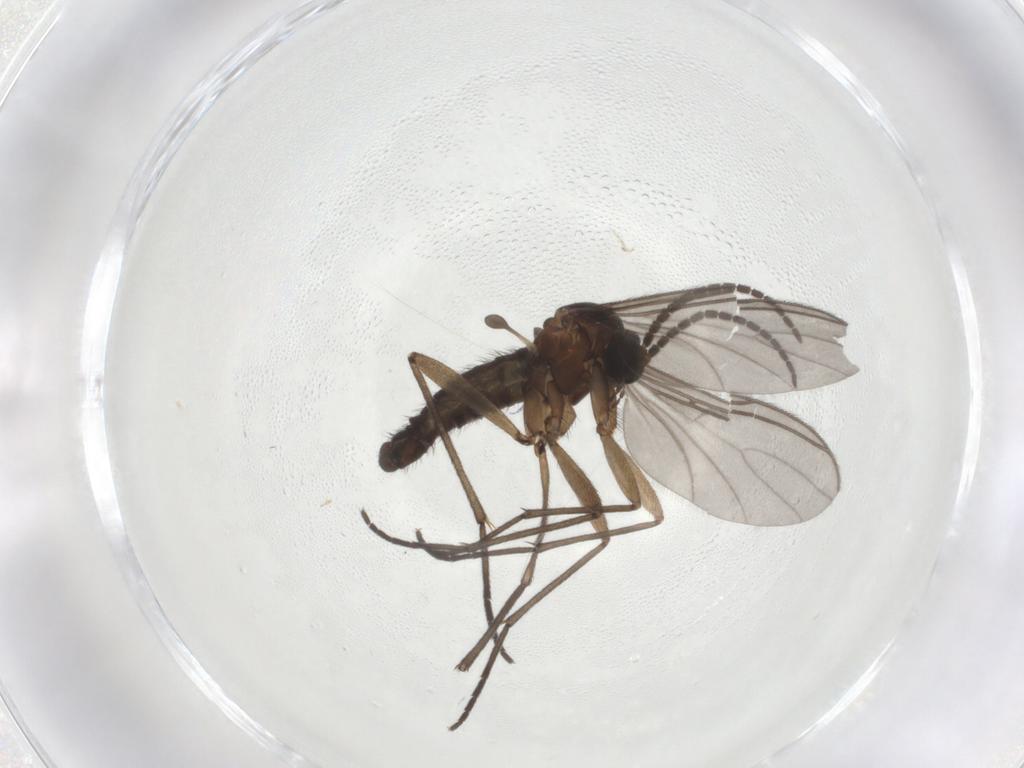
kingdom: Animalia
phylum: Arthropoda
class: Insecta
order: Diptera
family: Sciaridae
